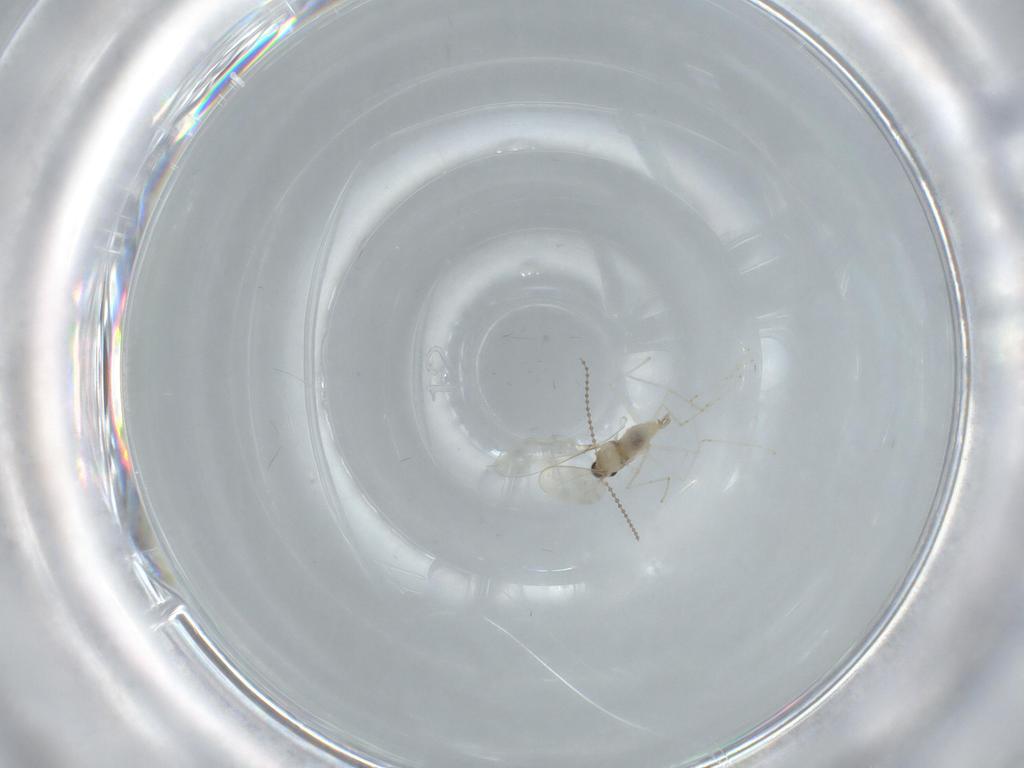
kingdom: Animalia
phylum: Arthropoda
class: Insecta
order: Diptera
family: Cecidomyiidae
